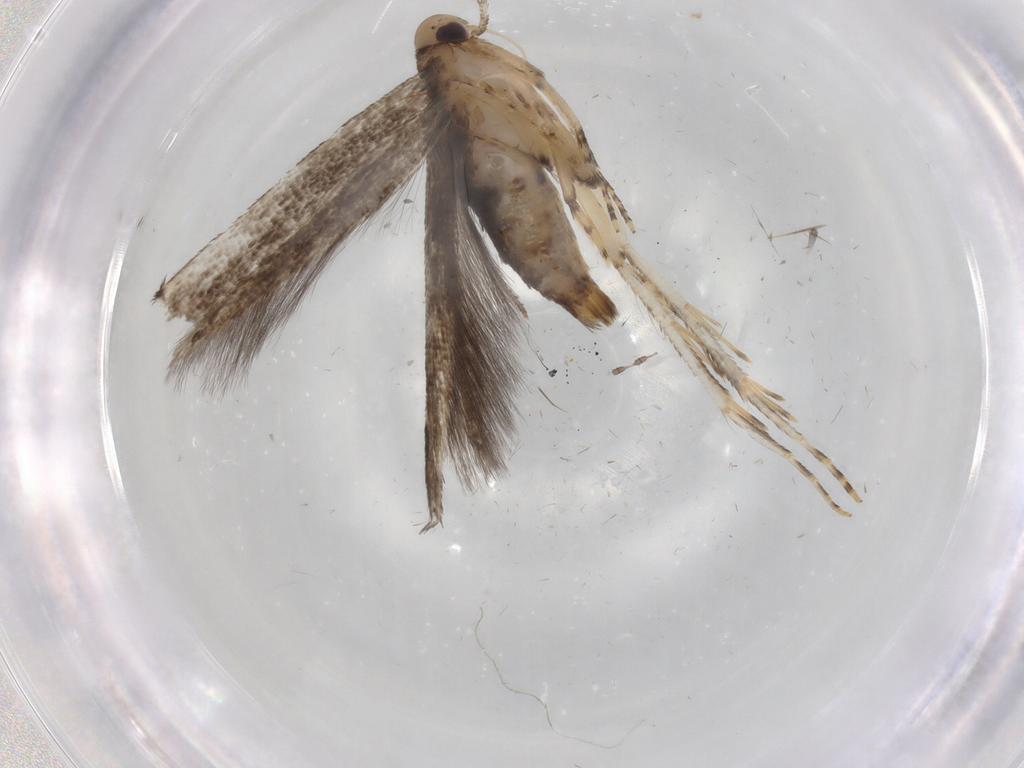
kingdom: Animalia
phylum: Arthropoda
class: Insecta
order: Lepidoptera
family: Cosmopterigidae
